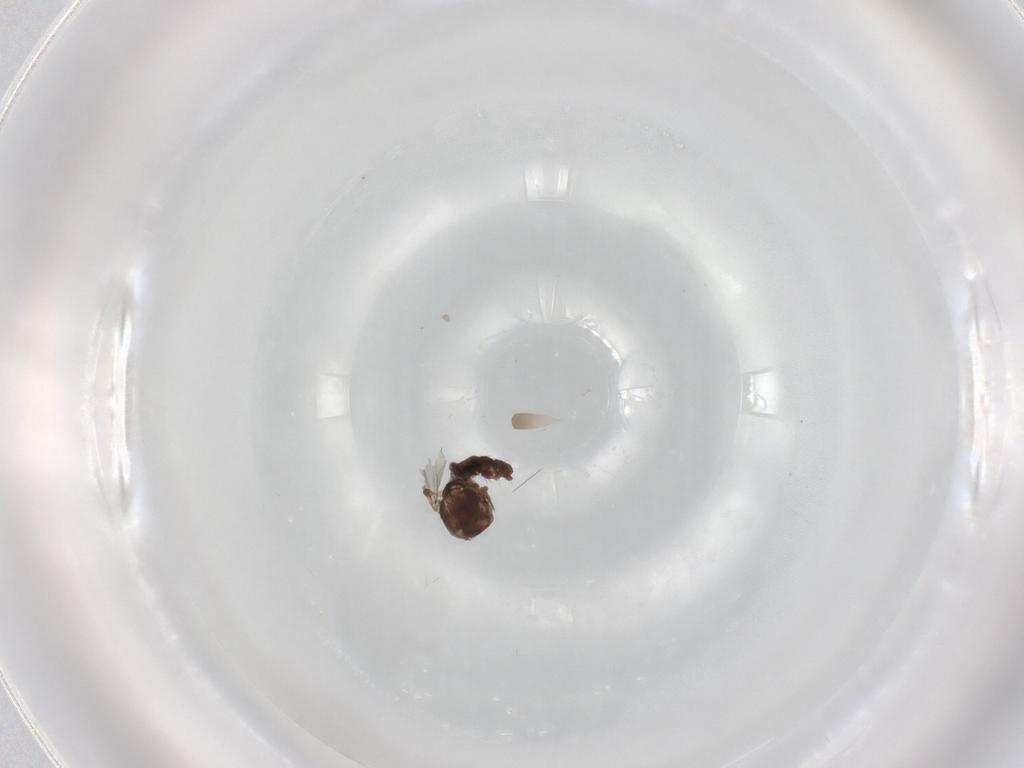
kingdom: Animalia
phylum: Arthropoda
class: Insecta
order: Diptera
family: Ceratopogonidae
